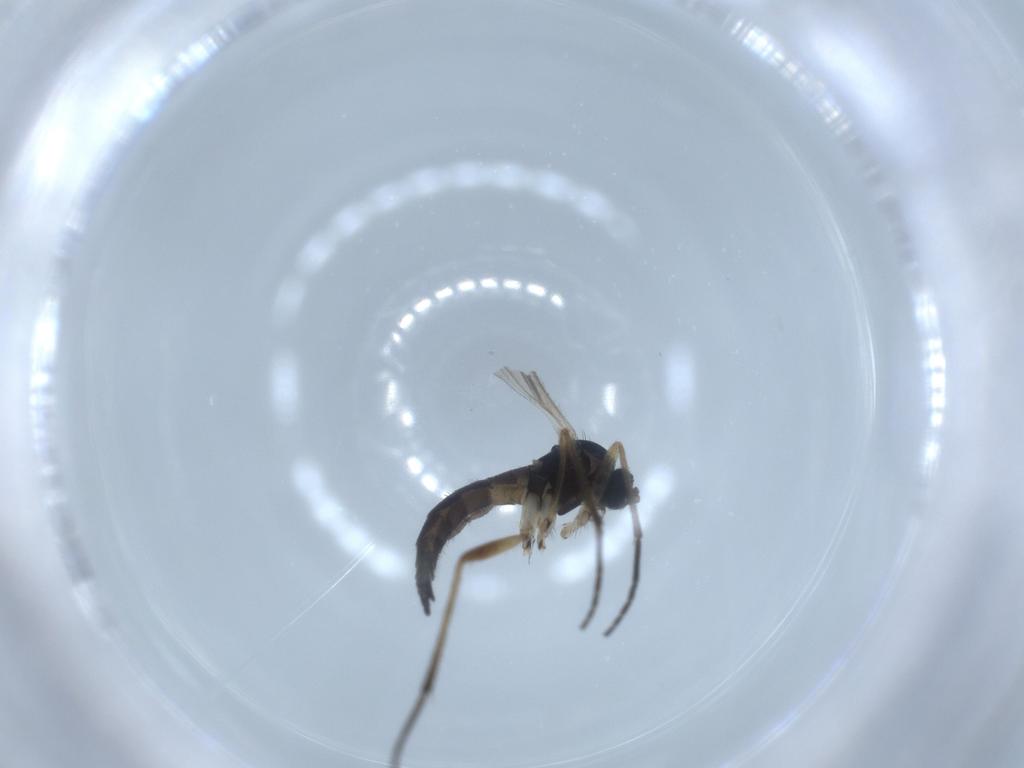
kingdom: Animalia
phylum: Arthropoda
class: Insecta
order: Diptera
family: Sciaridae
